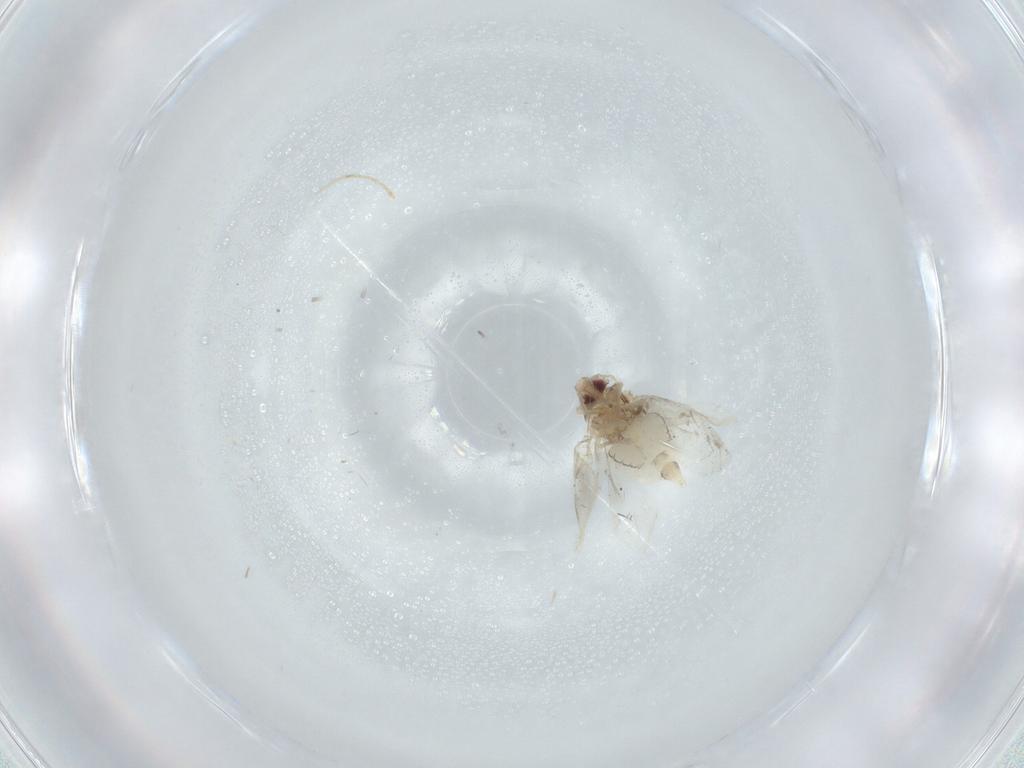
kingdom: Animalia
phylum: Arthropoda
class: Insecta
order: Hemiptera
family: Aleyrodidae
